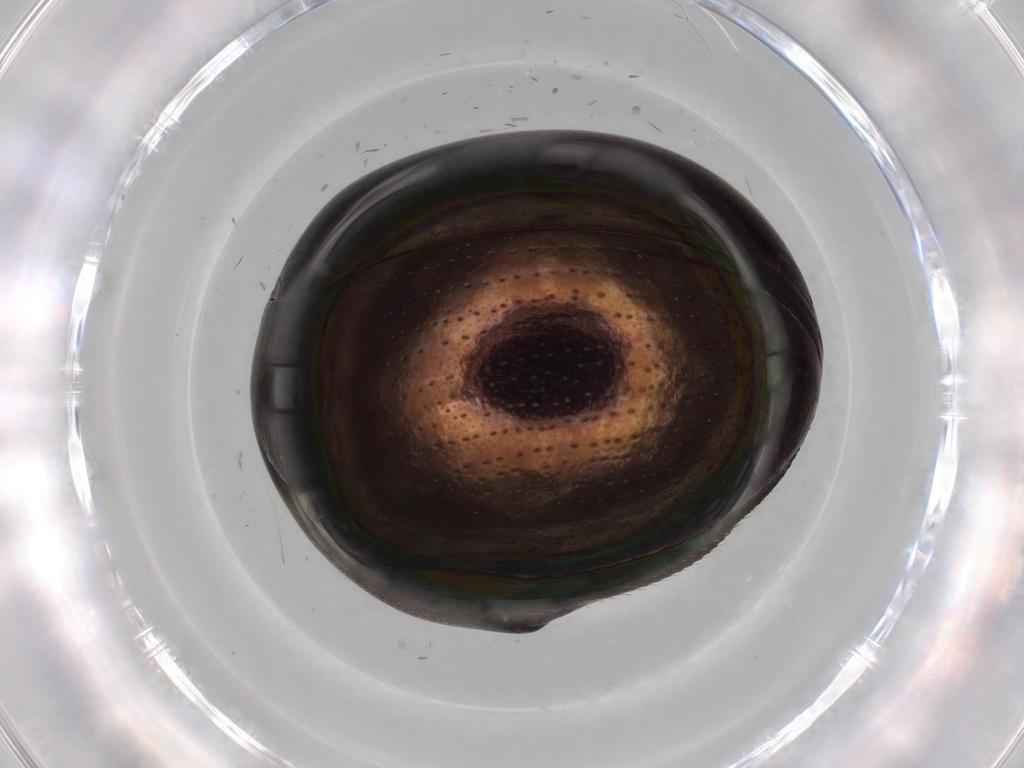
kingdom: Animalia
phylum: Arthropoda
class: Insecta
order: Coleoptera
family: Hybosoridae
